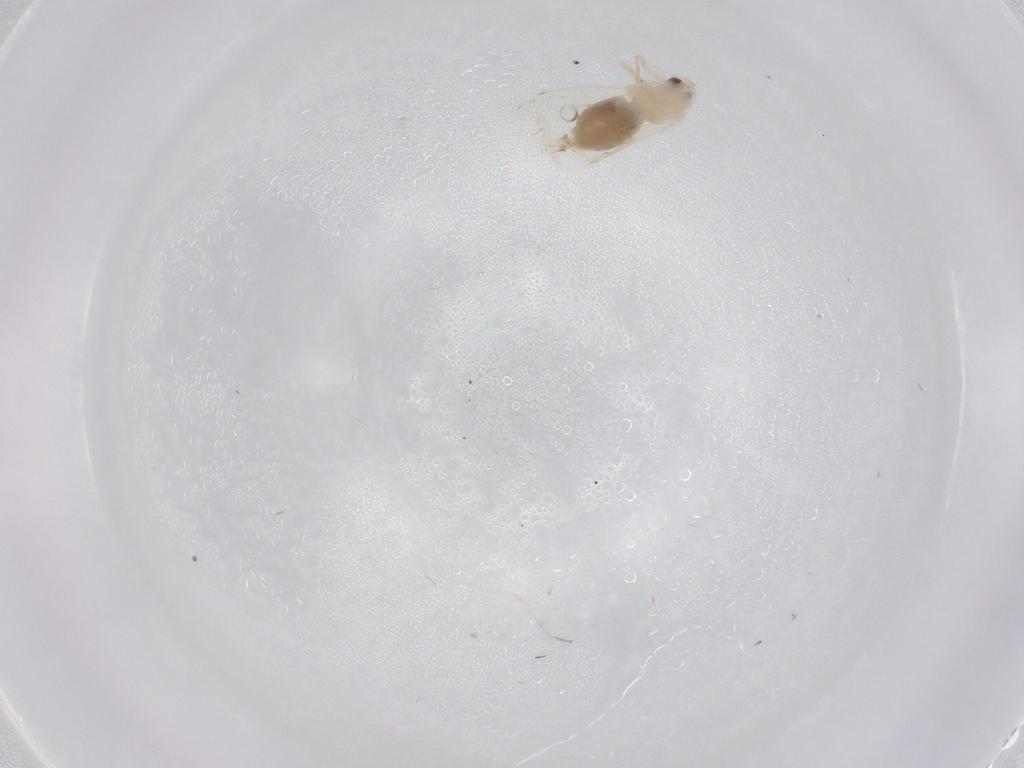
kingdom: Animalia
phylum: Arthropoda
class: Insecta
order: Hemiptera
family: Aleyrodidae
